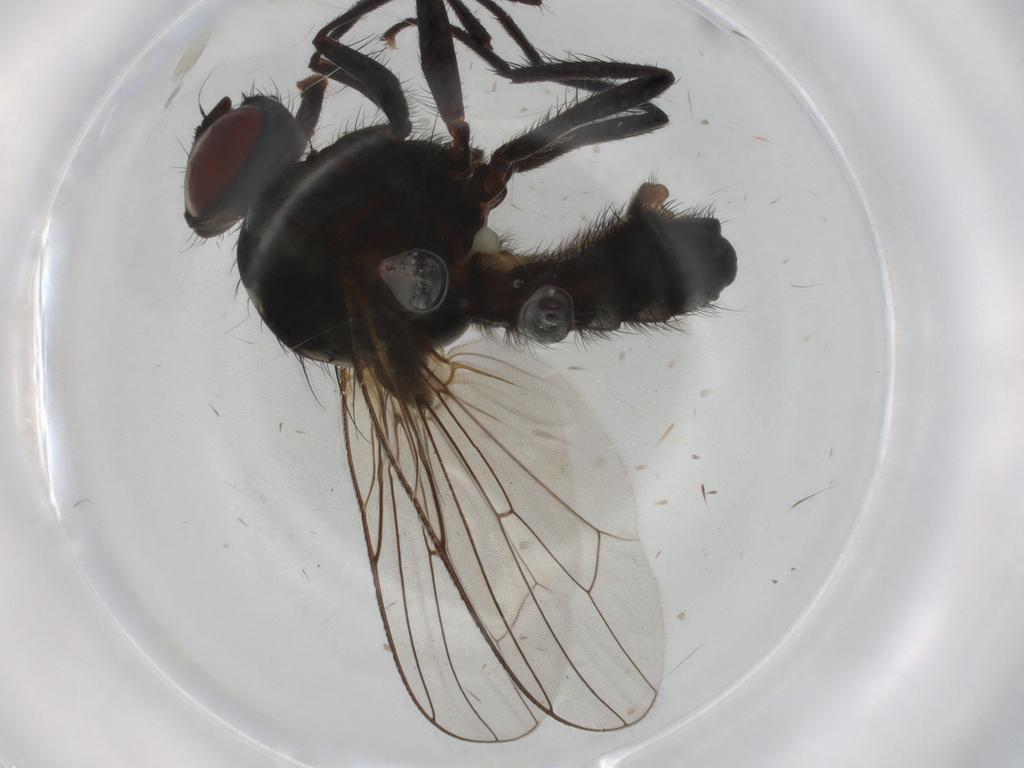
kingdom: Animalia
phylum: Arthropoda
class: Insecta
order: Diptera
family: Anthomyiidae
